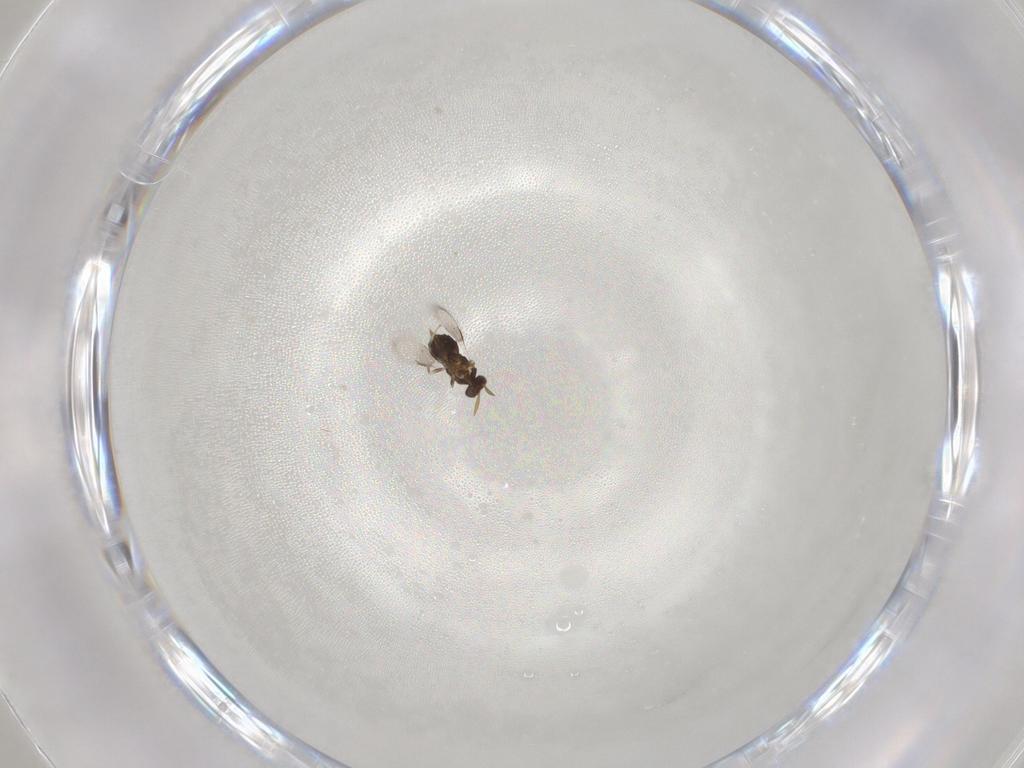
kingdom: Animalia
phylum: Arthropoda
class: Insecta
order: Hymenoptera
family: Aphelinidae
